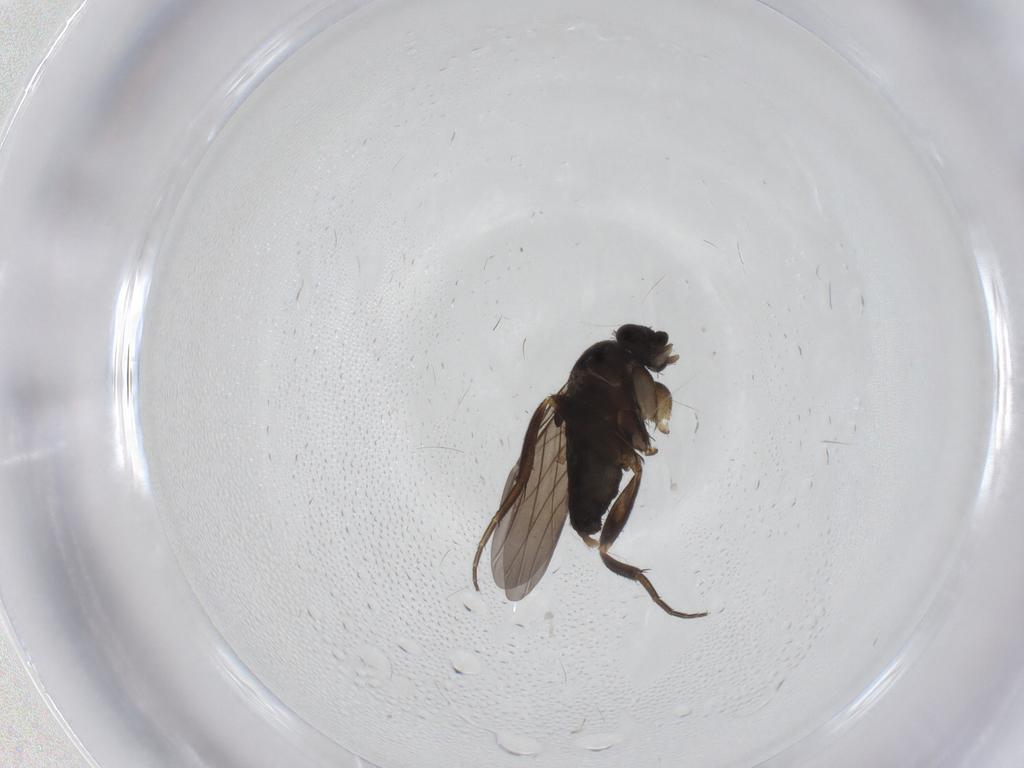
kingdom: Animalia
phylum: Arthropoda
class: Insecta
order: Diptera
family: Phoridae
